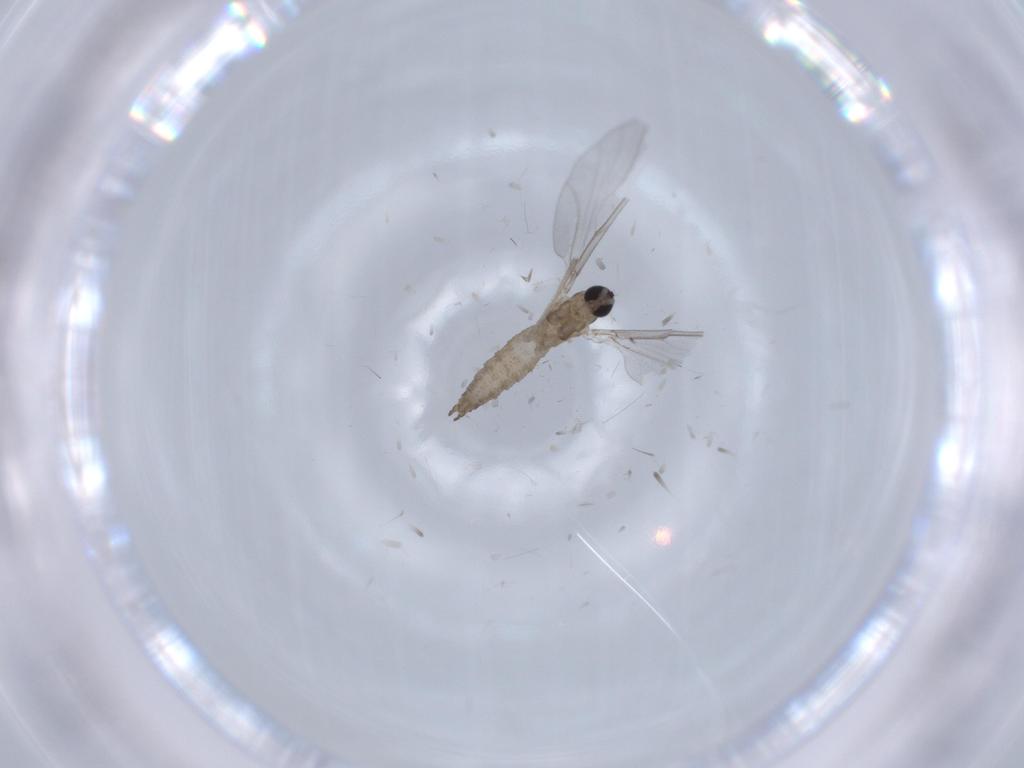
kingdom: Animalia
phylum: Arthropoda
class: Insecta
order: Diptera
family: Cecidomyiidae
